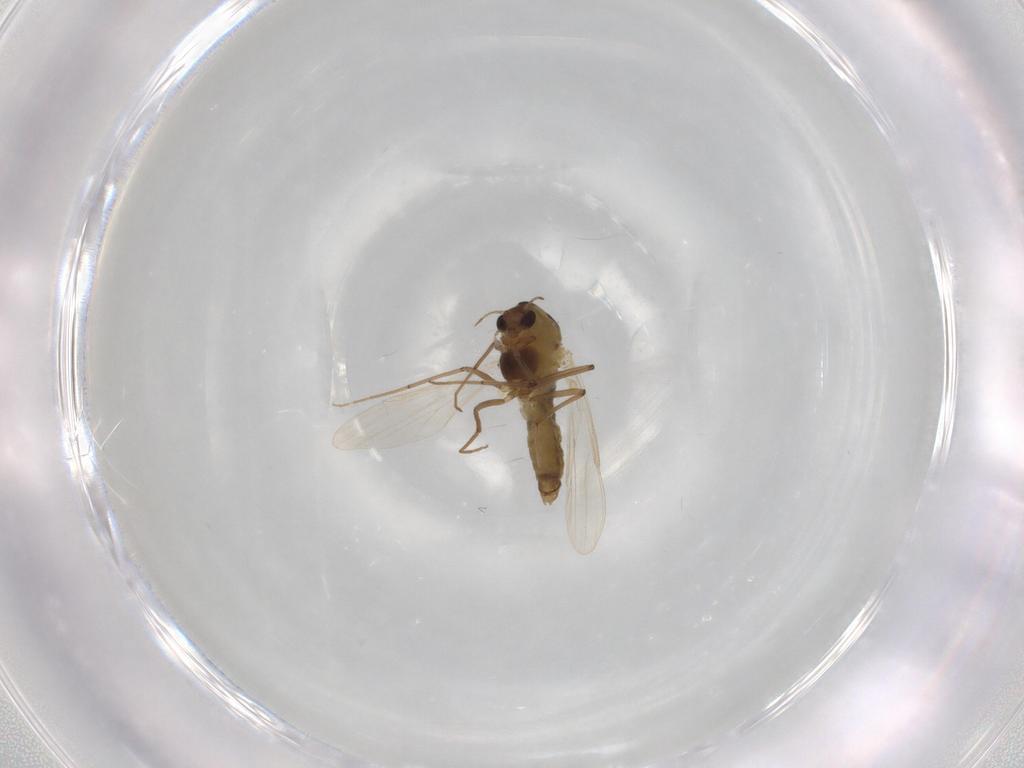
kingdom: Animalia
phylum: Arthropoda
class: Insecta
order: Diptera
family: Chironomidae
